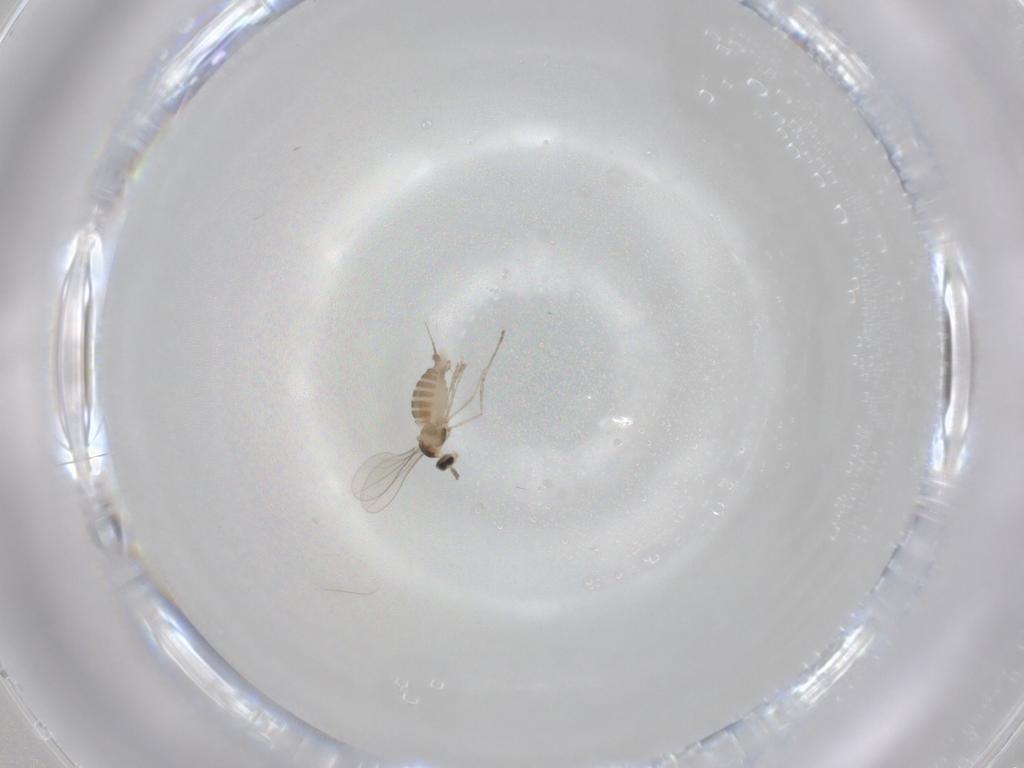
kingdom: Animalia
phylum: Arthropoda
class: Insecta
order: Diptera
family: Cecidomyiidae
